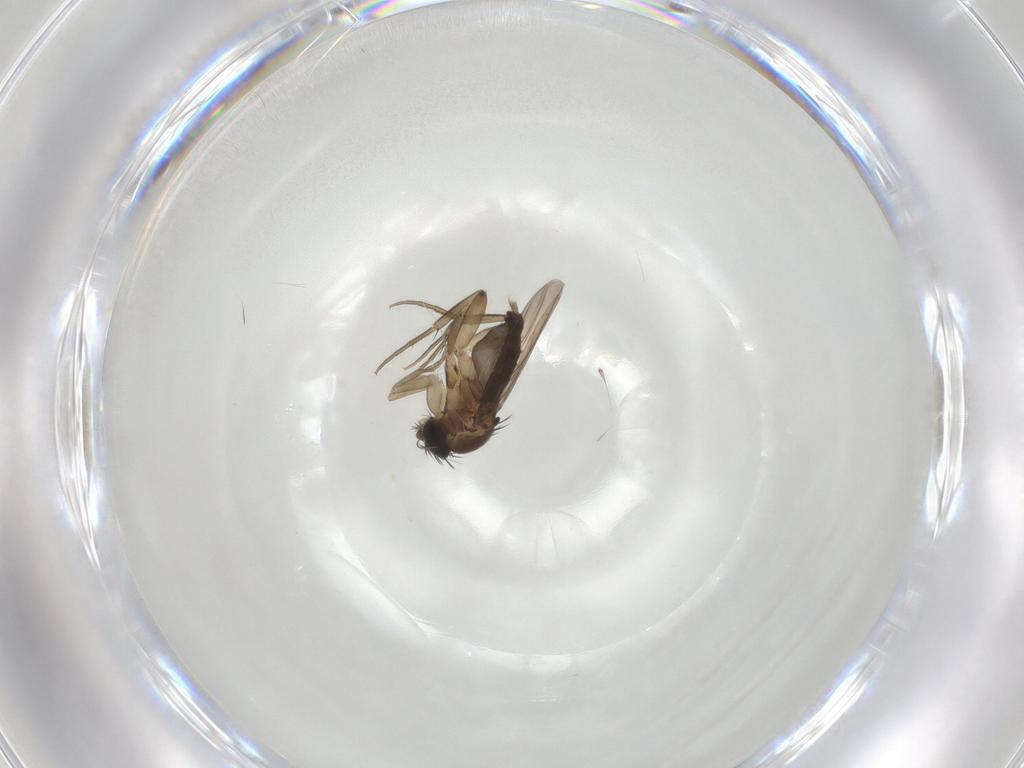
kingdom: Animalia
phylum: Arthropoda
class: Insecta
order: Diptera
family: Phoridae
